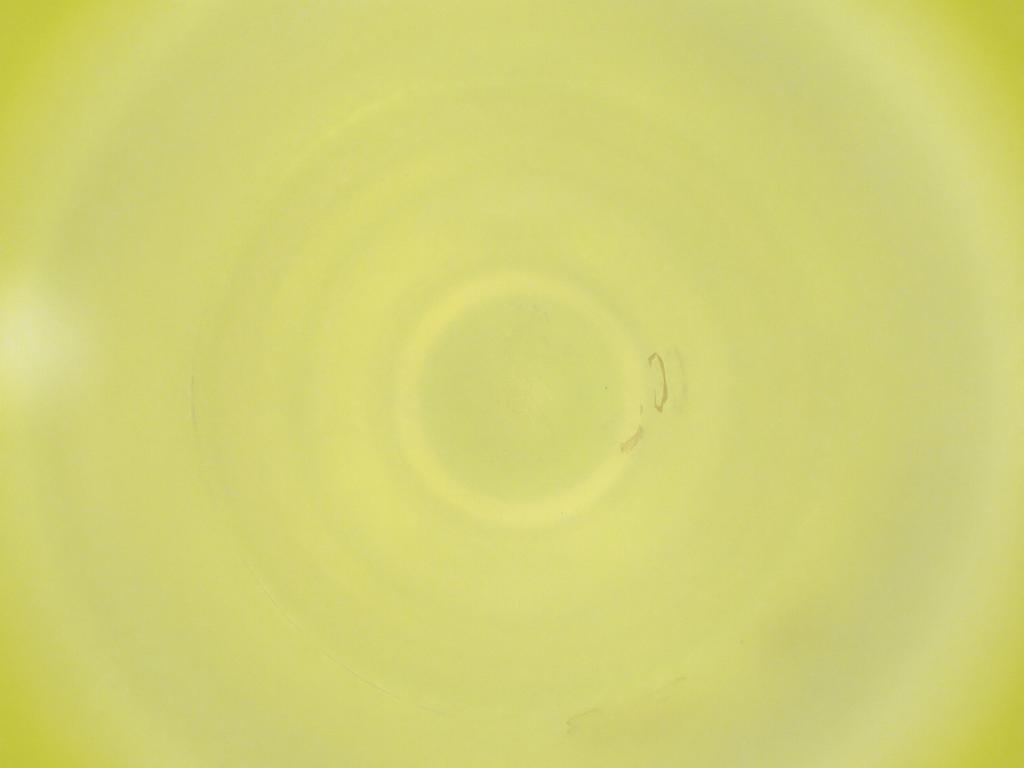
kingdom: Animalia
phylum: Arthropoda
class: Insecta
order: Diptera
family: Cecidomyiidae
